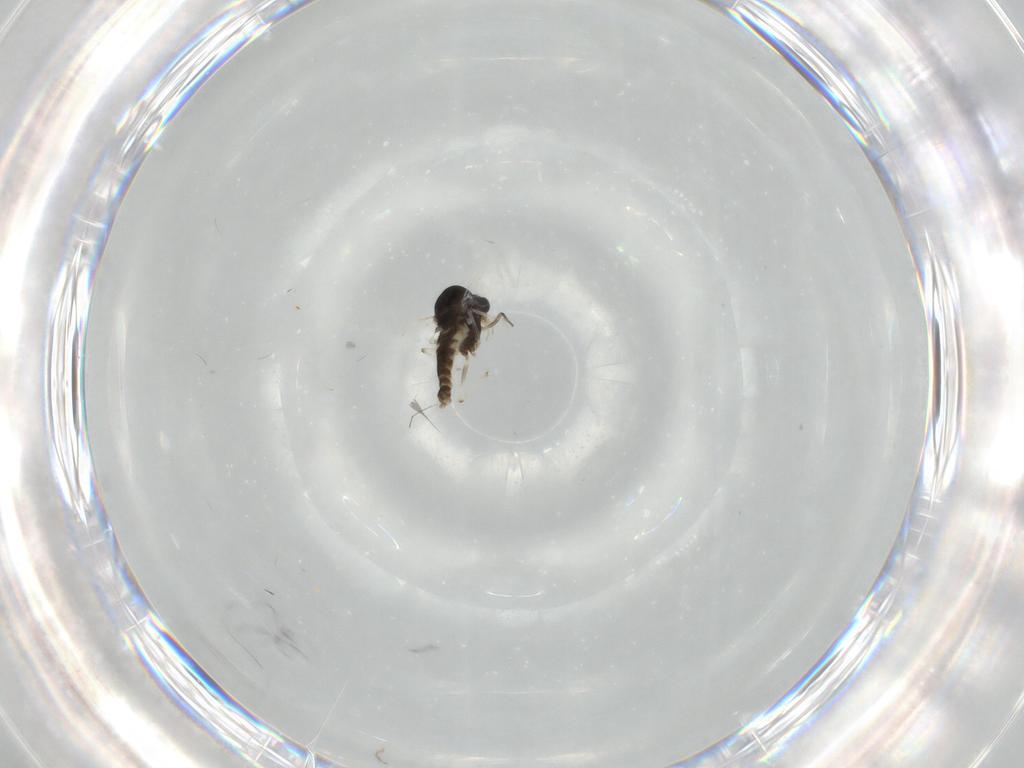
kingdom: Animalia
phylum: Arthropoda
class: Insecta
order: Diptera
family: Chironomidae
